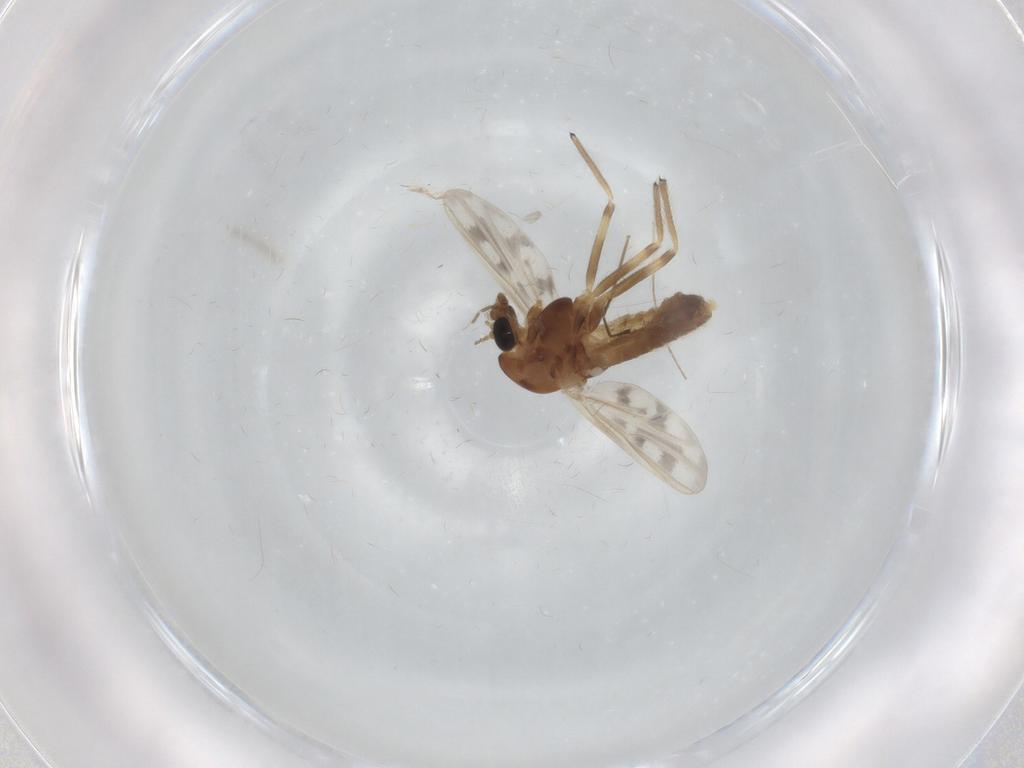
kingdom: Animalia
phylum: Arthropoda
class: Insecta
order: Diptera
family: Chironomidae
